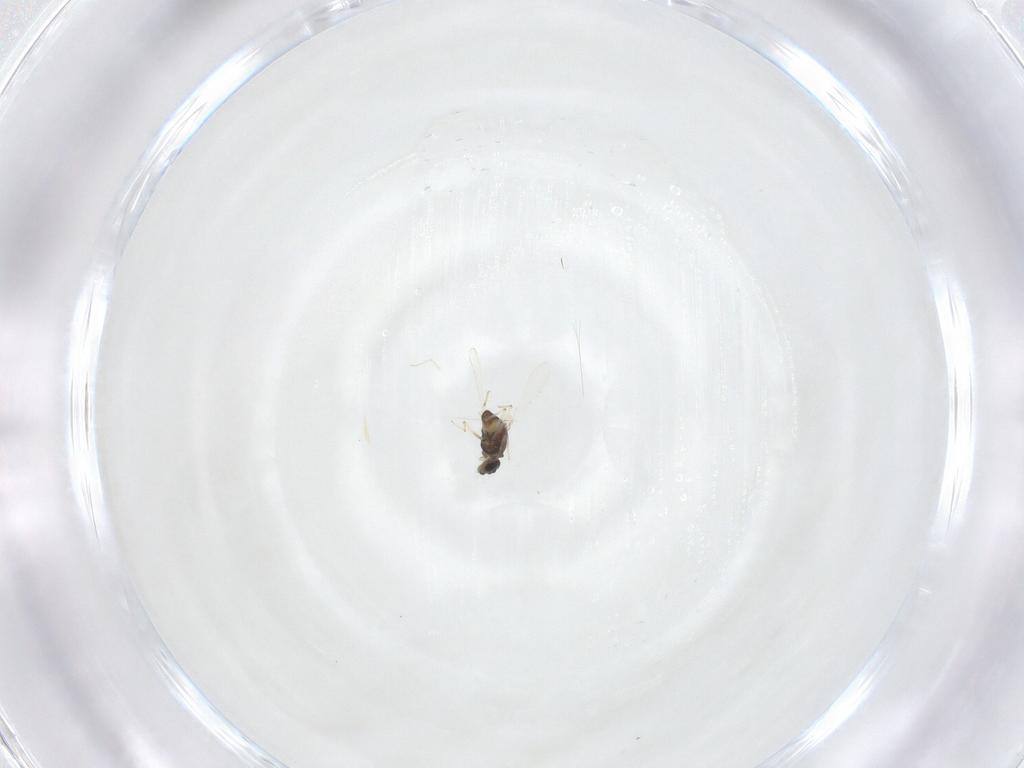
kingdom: Animalia
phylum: Arthropoda
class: Insecta
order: Diptera
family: Chironomidae
